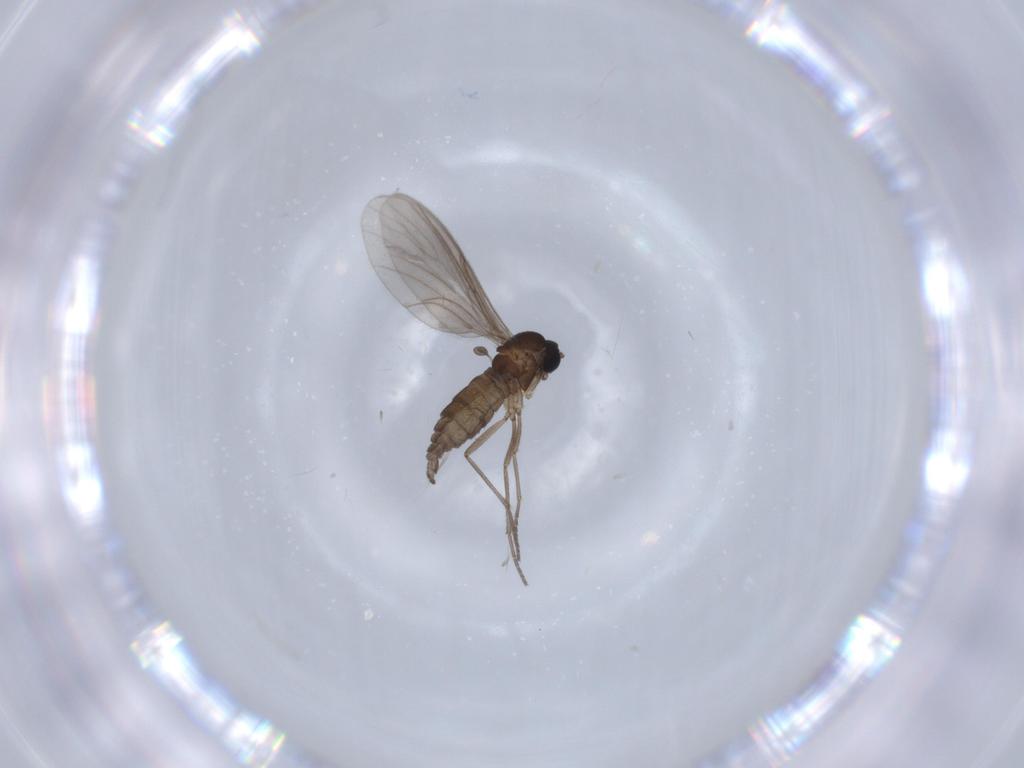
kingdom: Animalia
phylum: Arthropoda
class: Insecta
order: Diptera
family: Sciaridae
